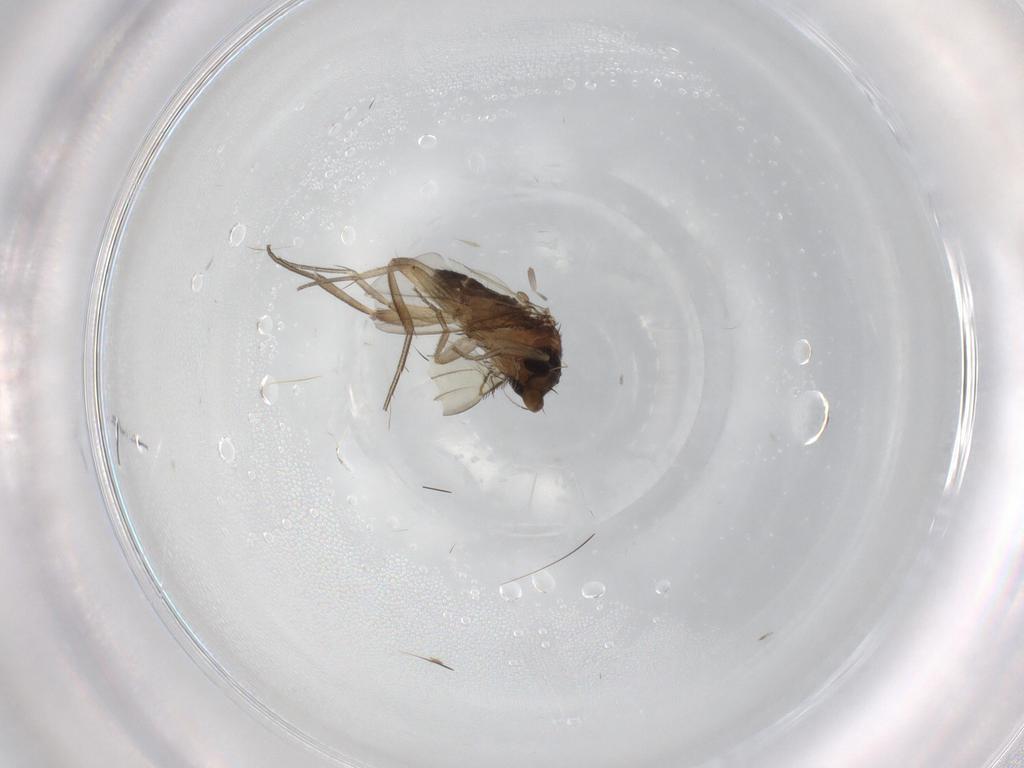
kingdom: Animalia
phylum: Arthropoda
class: Insecta
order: Diptera
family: Phoridae
